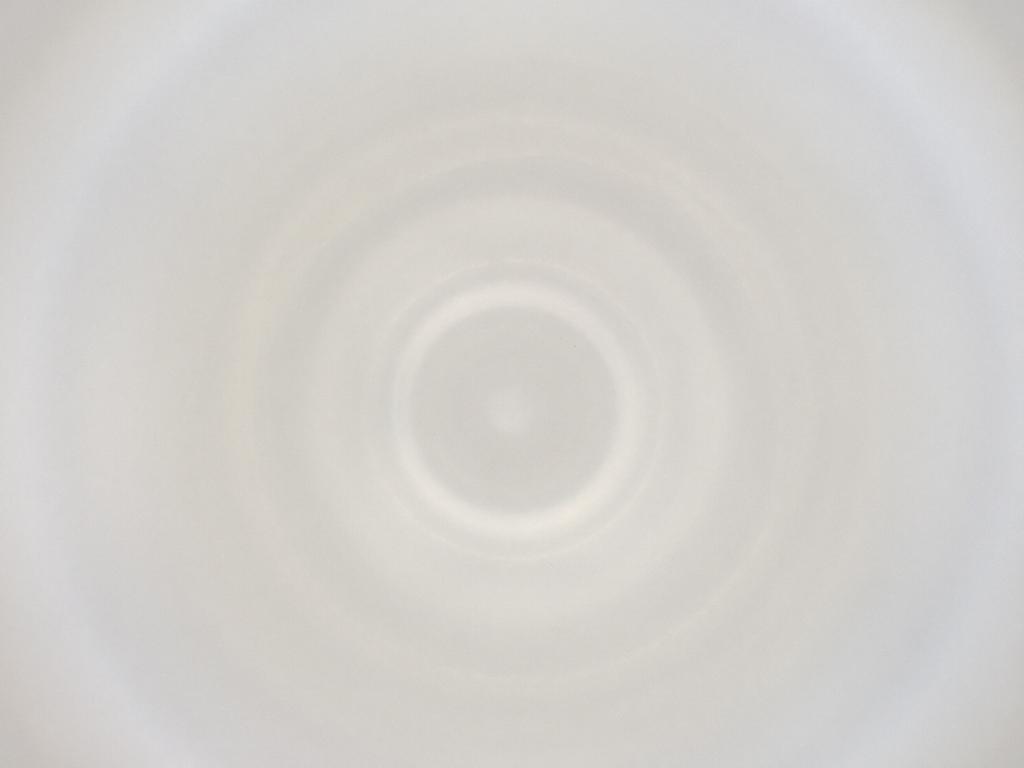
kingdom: Animalia
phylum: Arthropoda
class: Insecta
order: Diptera
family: Cecidomyiidae
